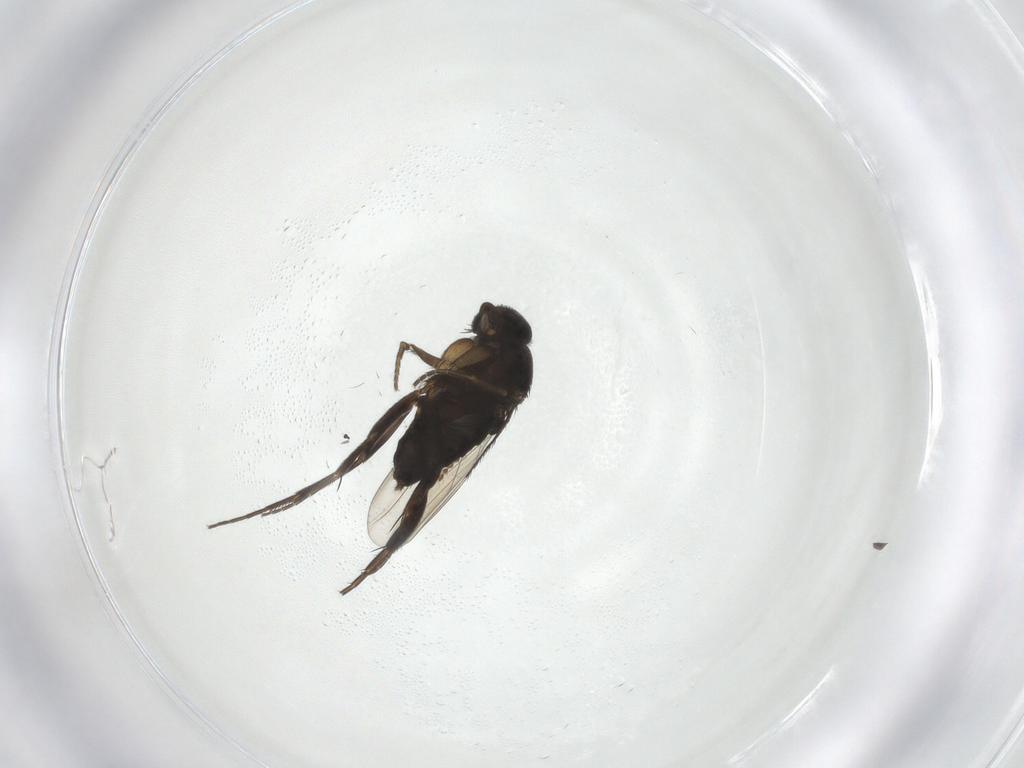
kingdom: Animalia
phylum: Arthropoda
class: Insecta
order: Diptera
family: Limoniidae
